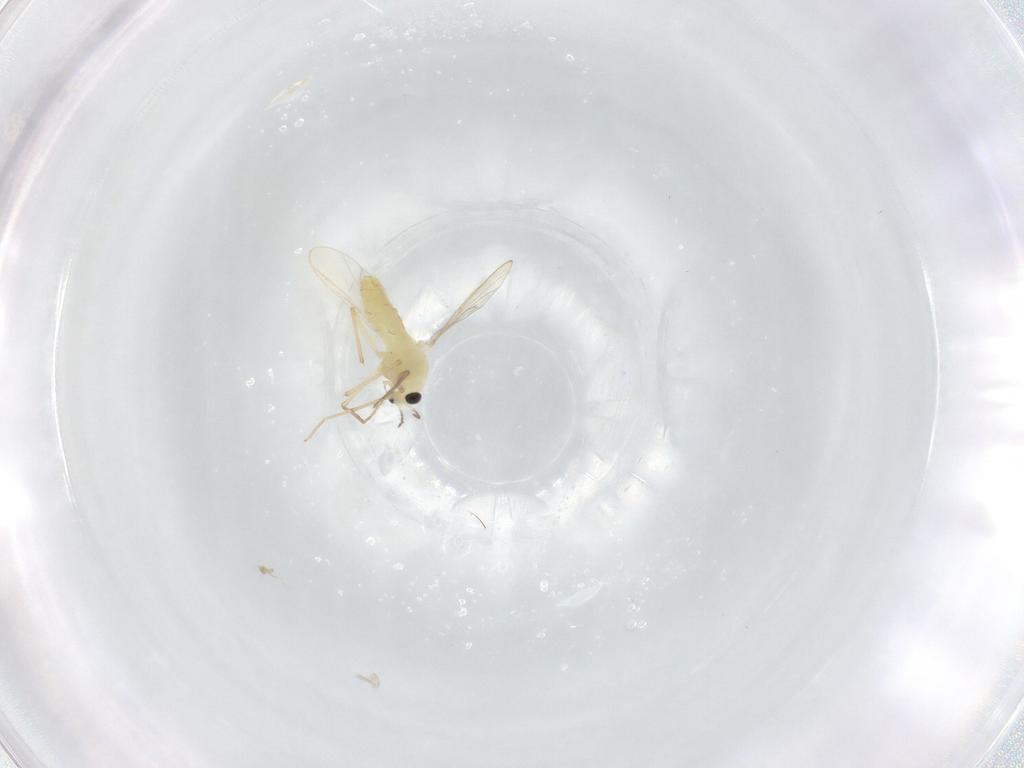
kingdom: Animalia
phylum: Arthropoda
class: Insecta
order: Diptera
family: Chironomidae
